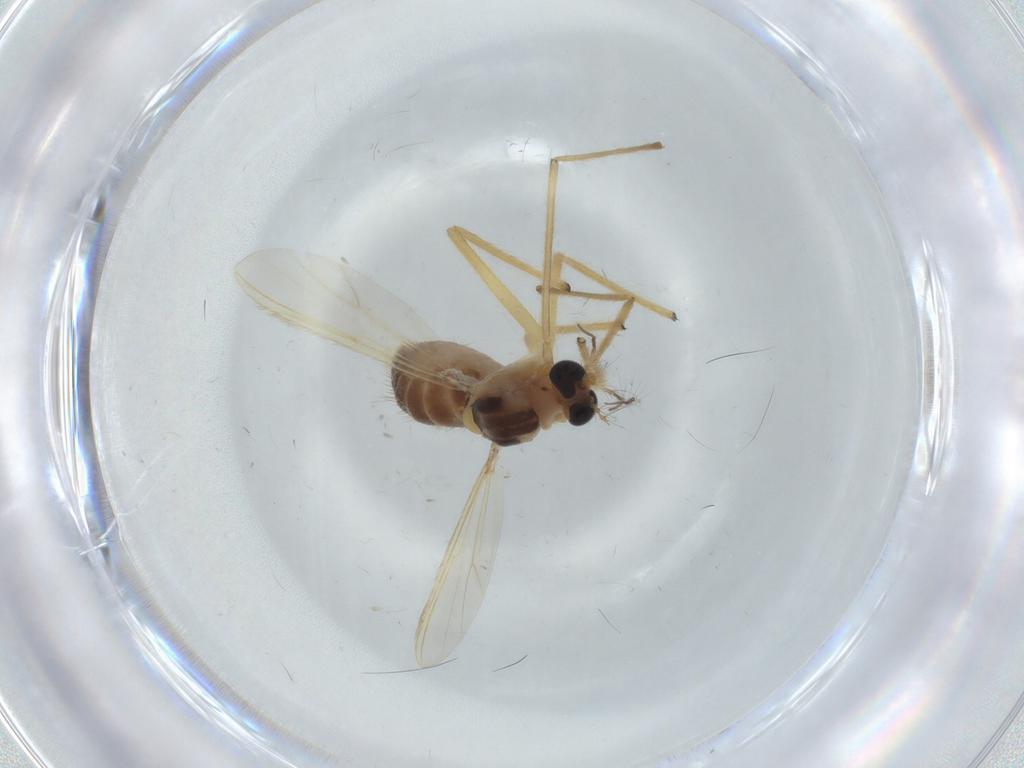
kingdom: Animalia
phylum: Arthropoda
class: Insecta
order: Diptera
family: Chironomidae
